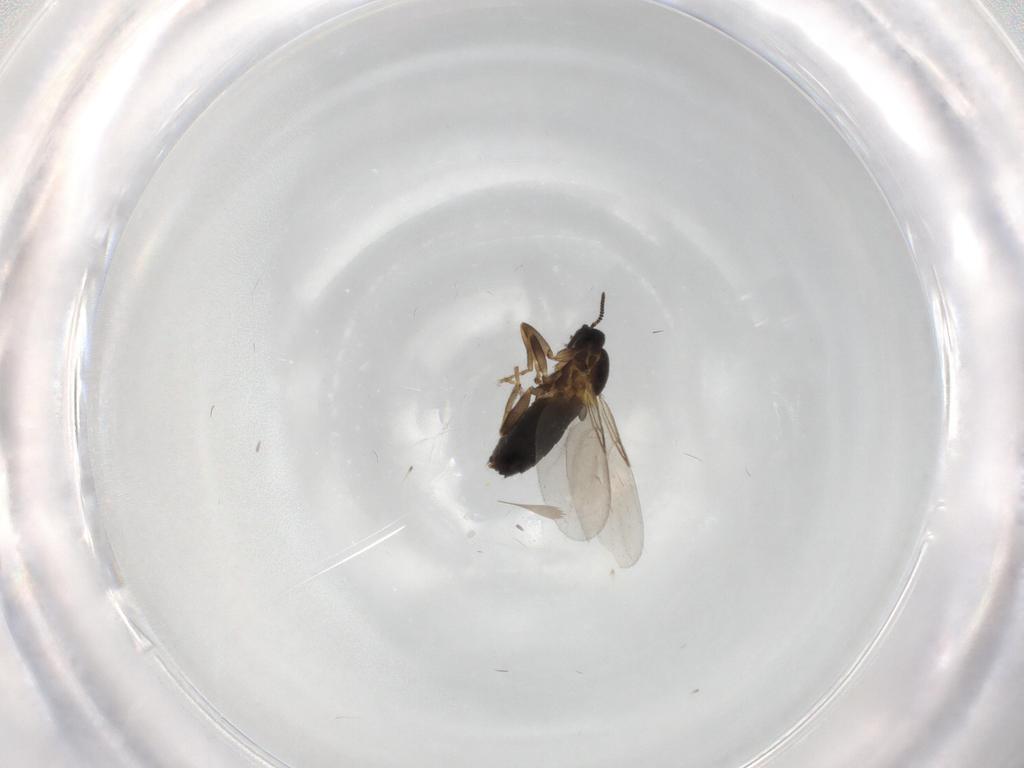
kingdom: Animalia
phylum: Arthropoda
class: Insecta
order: Diptera
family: Scatopsidae
